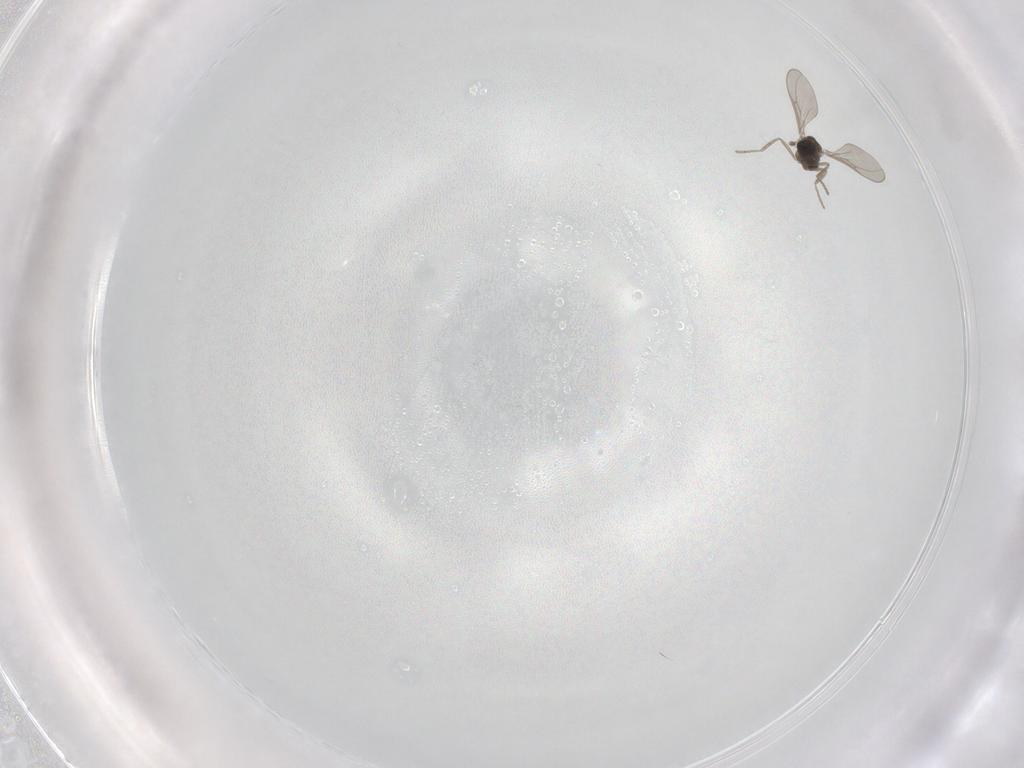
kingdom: Animalia
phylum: Arthropoda
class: Insecta
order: Diptera
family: Cecidomyiidae
